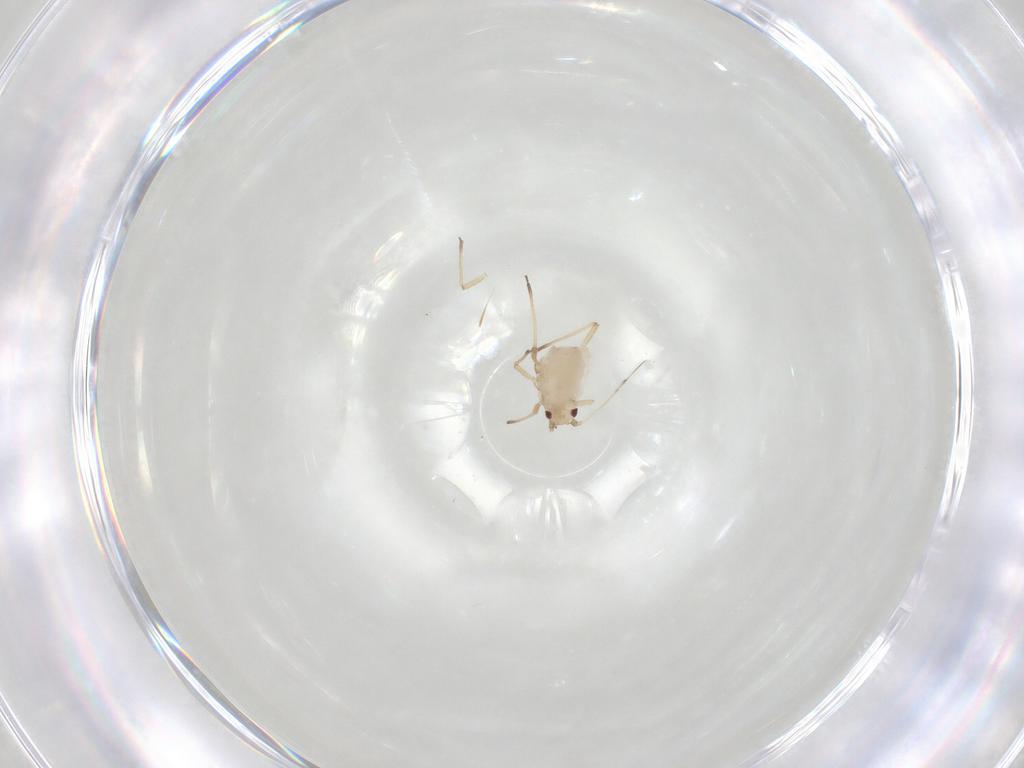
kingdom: Animalia
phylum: Arthropoda
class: Insecta
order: Hemiptera
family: Aphididae
